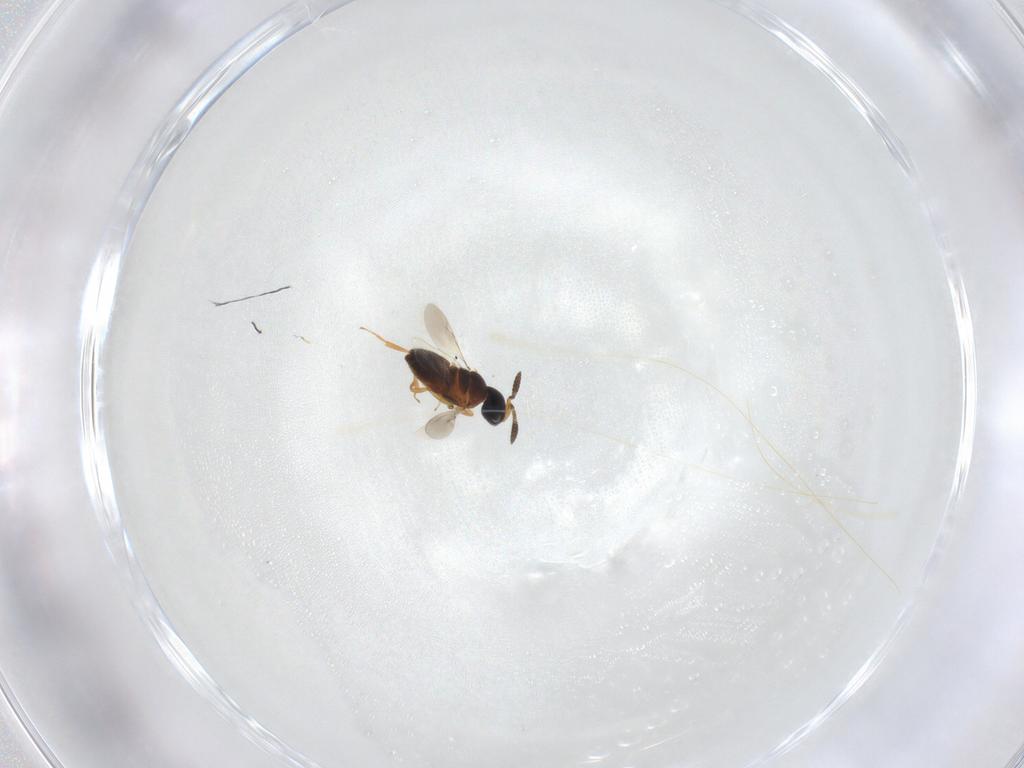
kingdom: Animalia
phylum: Arthropoda
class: Insecta
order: Hymenoptera
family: Scelionidae
